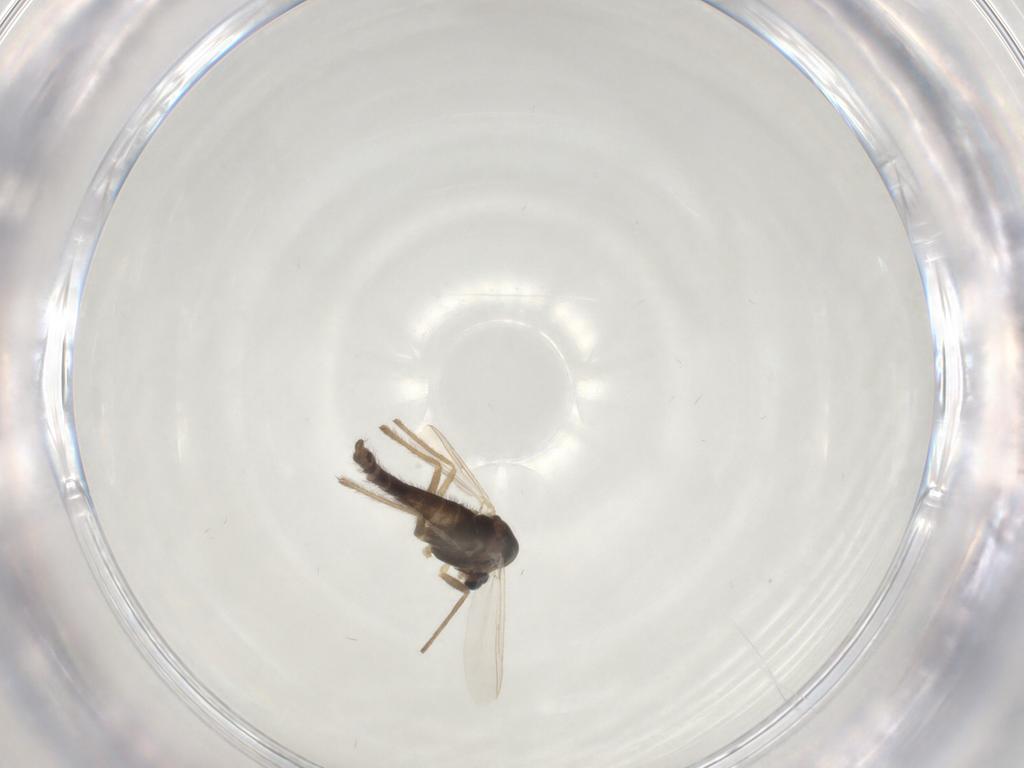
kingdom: Animalia
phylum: Arthropoda
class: Insecta
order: Diptera
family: Chironomidae
